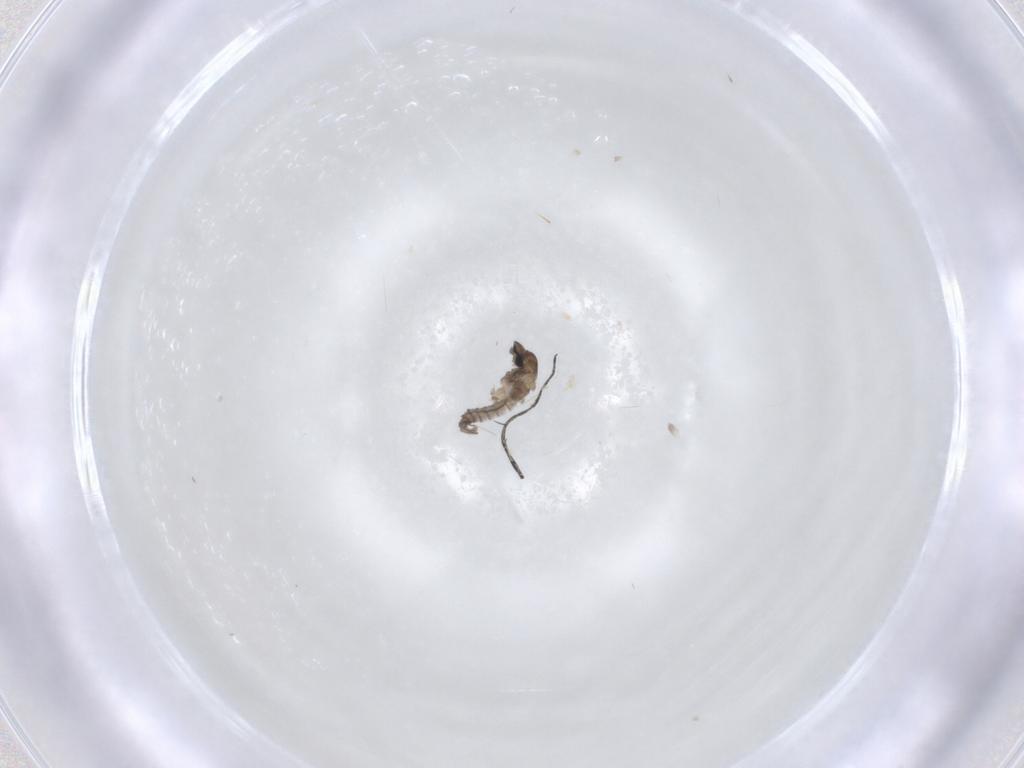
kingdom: Animalia
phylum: Arthropoda
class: Insecta
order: Diptera
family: Cecidomyiidae
